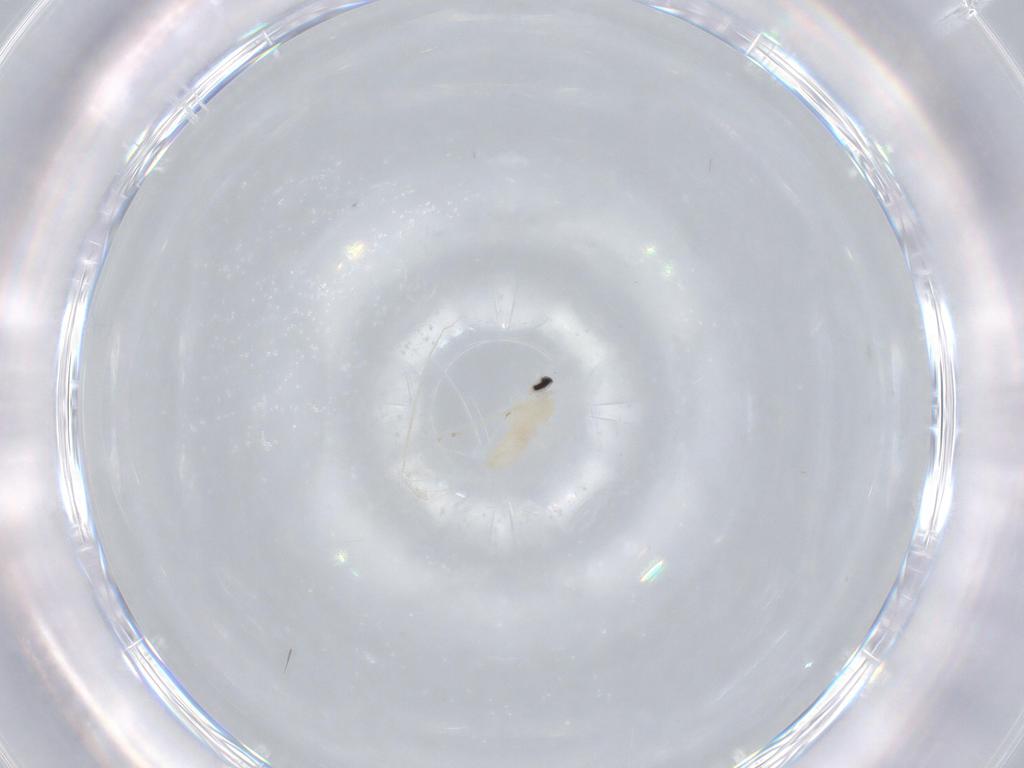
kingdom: Animalia
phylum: Arthropoda
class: Insecta
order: Diptera
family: Cecidomyiidae
